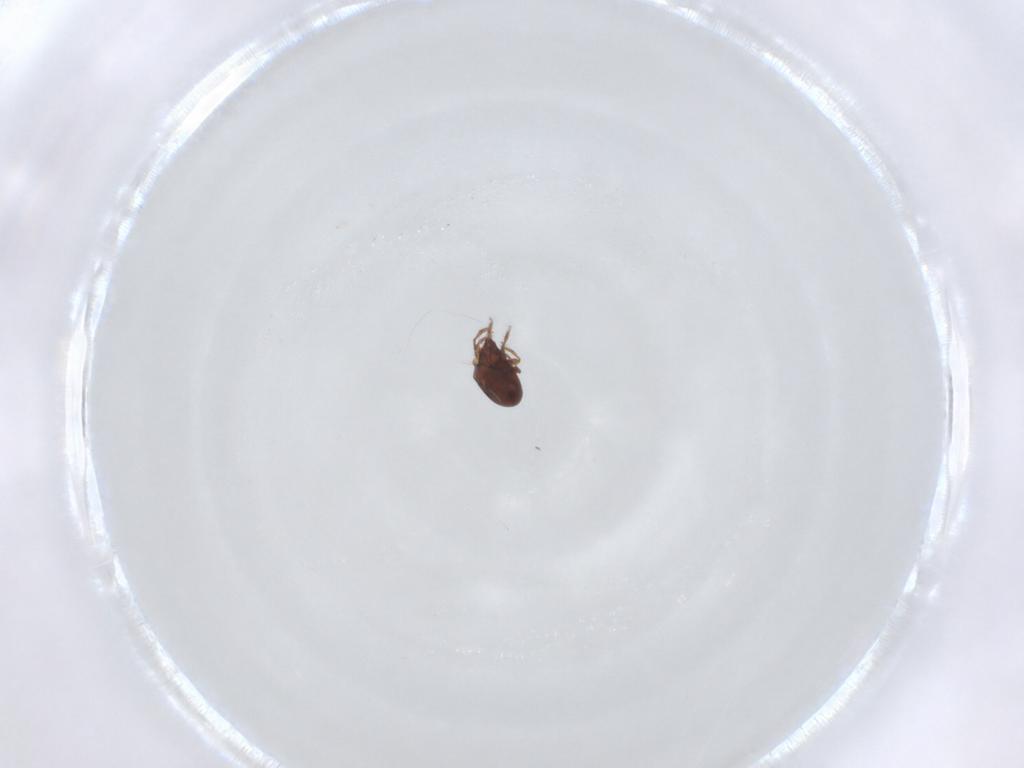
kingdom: Animalia
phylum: Arthropoda
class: Arachnida
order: Sarcoptiformes
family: Ceratozetidae
